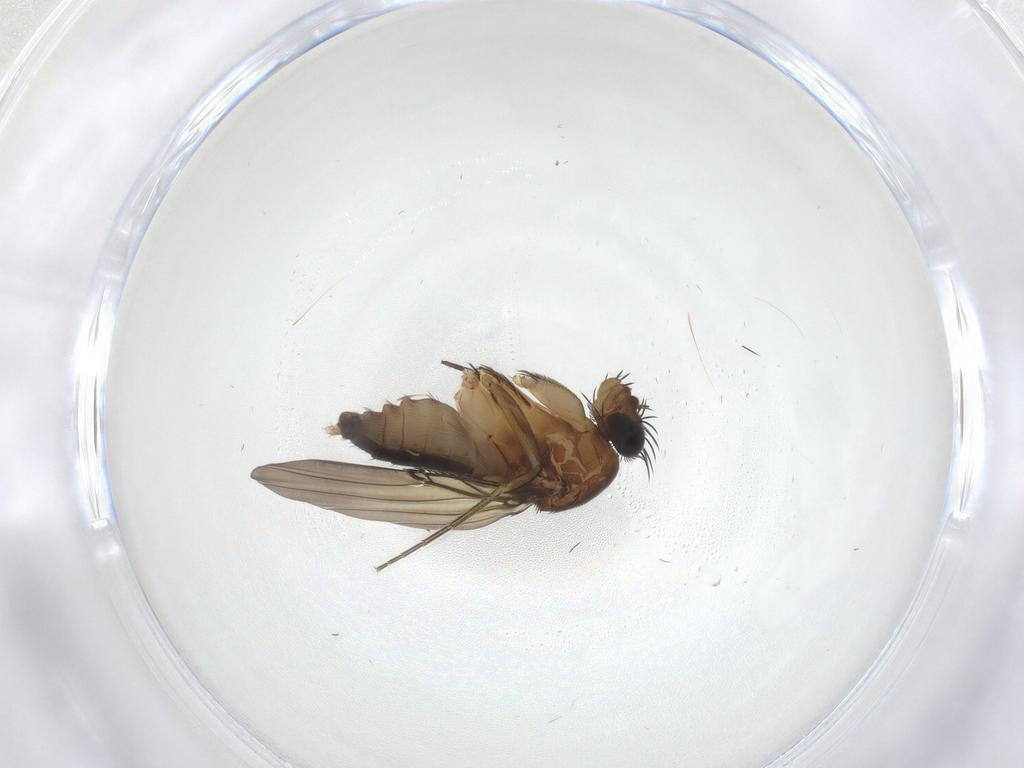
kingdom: Animalia
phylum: Arthropoda
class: Insecta
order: Diptera
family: Phoridae
